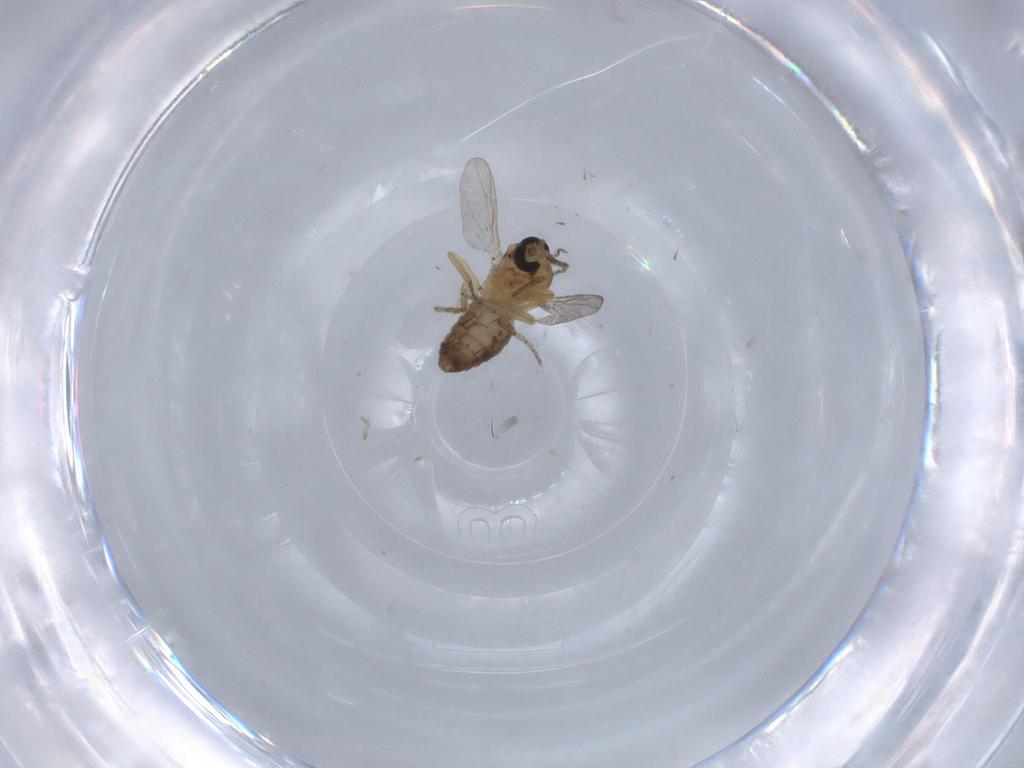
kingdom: Animalia
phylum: Arthropoda
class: Insecta
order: Diptera
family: Ceratopogonidae
